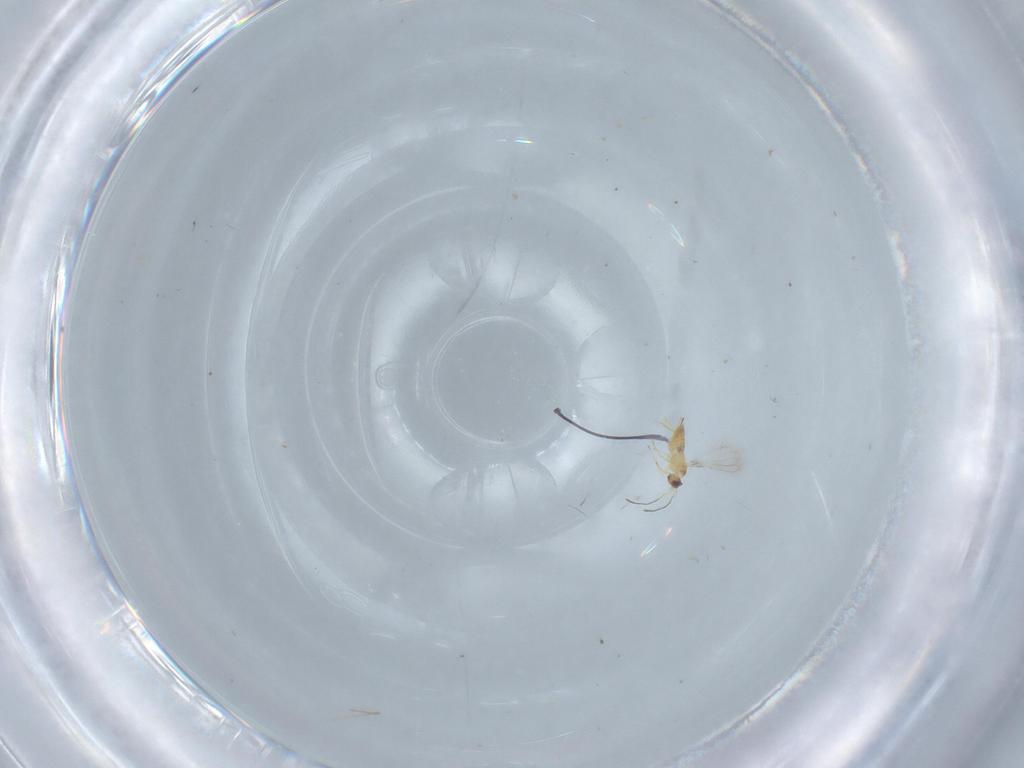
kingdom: Animalia
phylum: Arthropoda
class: Insecta
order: Hymenoptera
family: Mymaridae
